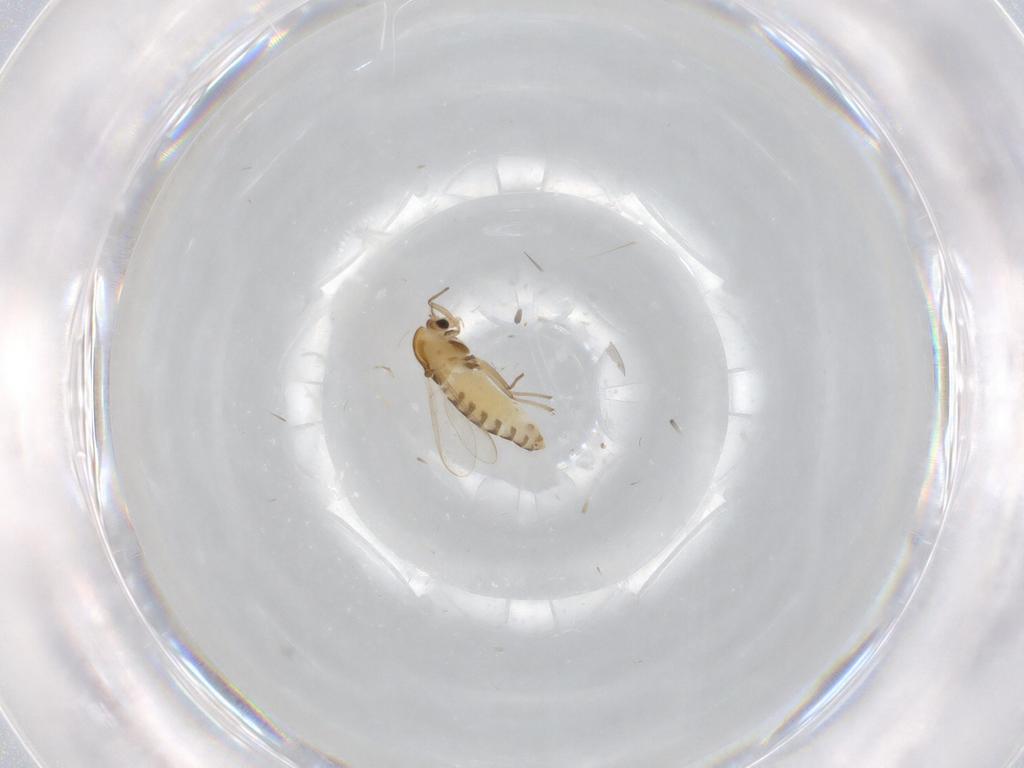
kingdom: Animalia
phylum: Arthropoda
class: Insecta
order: Diptera
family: Chironomidae
